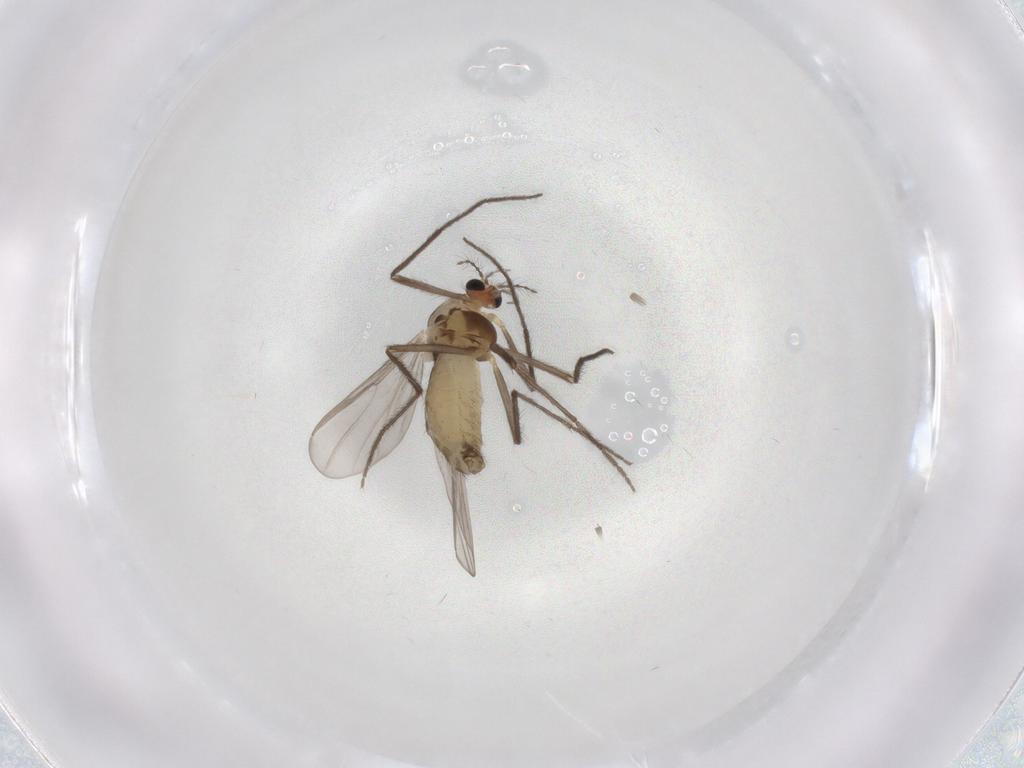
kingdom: Animalia
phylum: Arthropoda
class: Insecta
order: Diptera
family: Chironomidae
